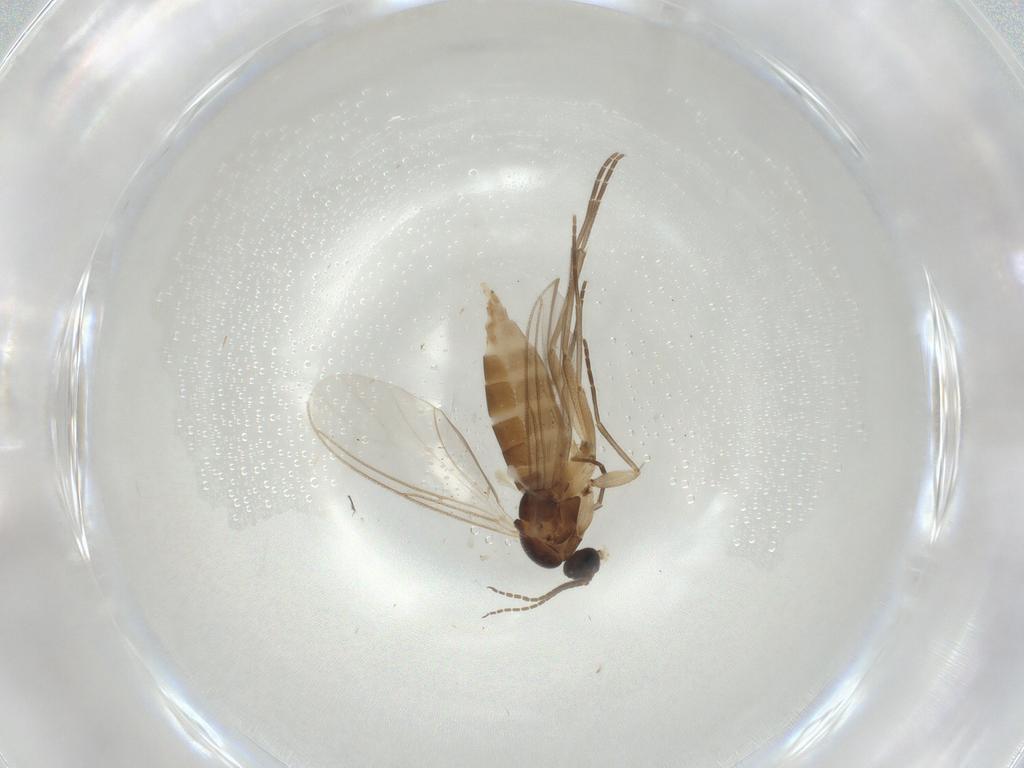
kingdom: Animalia
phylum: Arthropoda
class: Insecta
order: Diptera
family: Sciaridae
